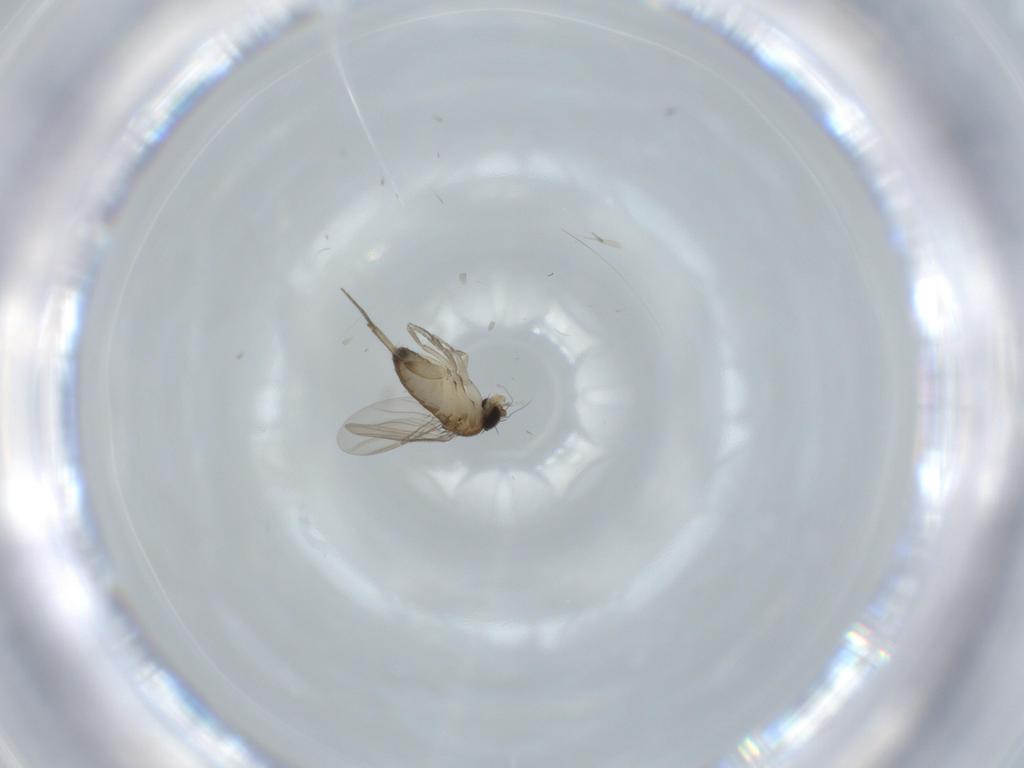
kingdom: Animalia
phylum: Arthropoda
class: Insecta
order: Diptera
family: Phoridae
